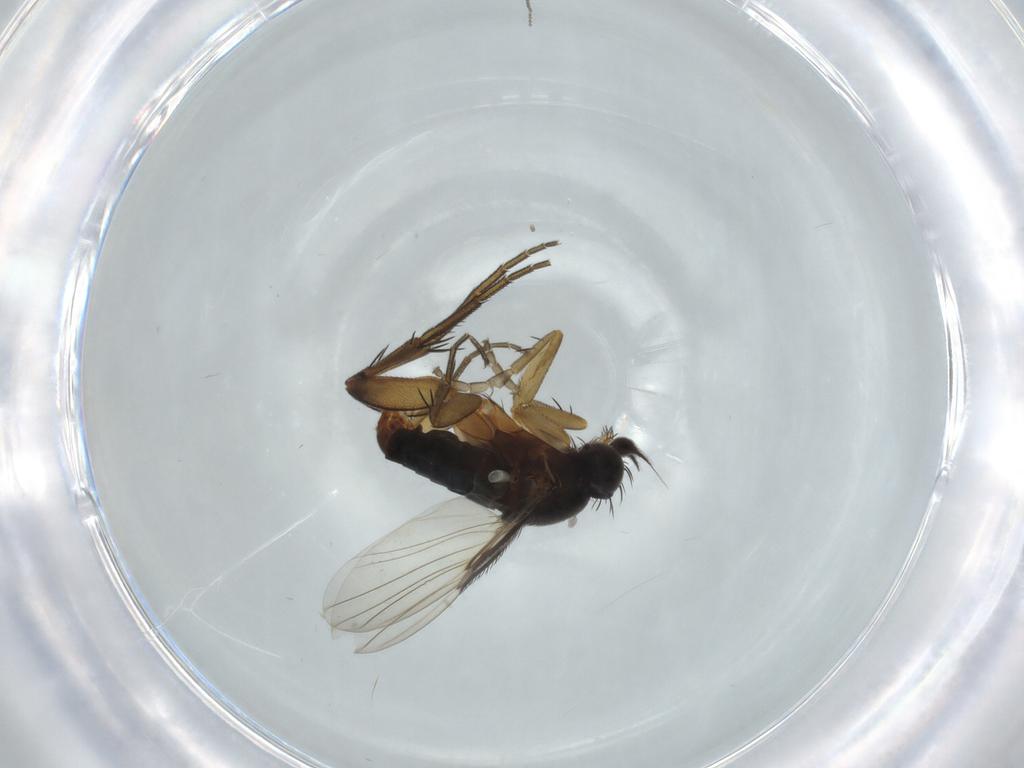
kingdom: Animalia
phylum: Arthropoda
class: Insecta
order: Diptera
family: Phoridae
